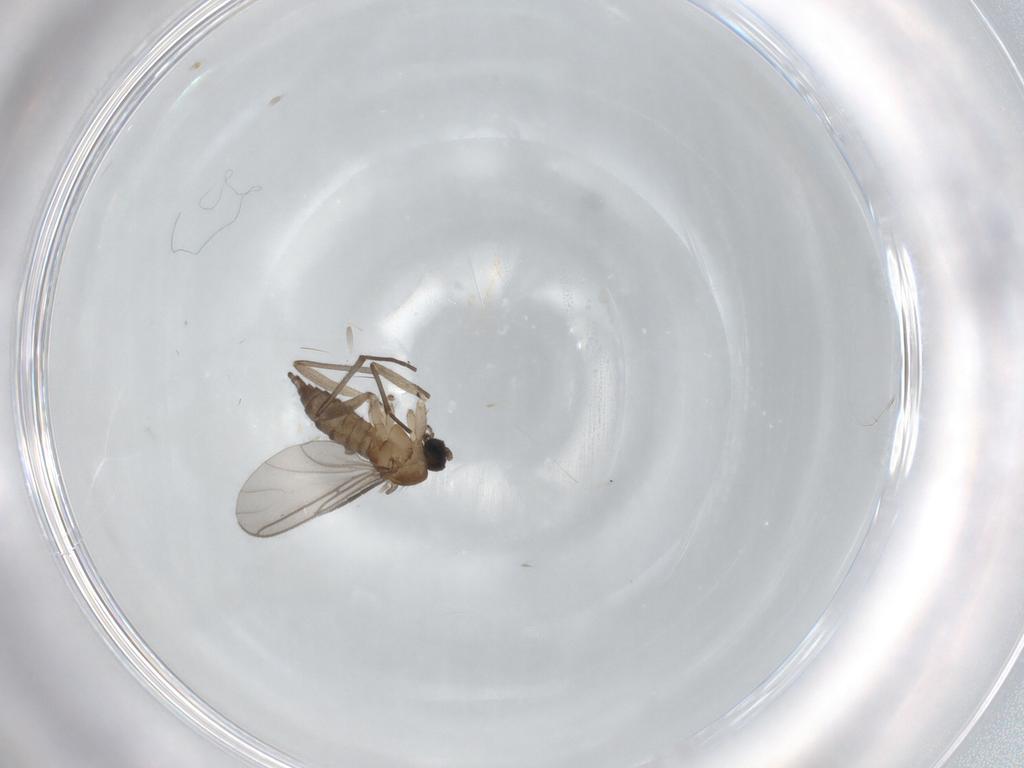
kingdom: Animalia
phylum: Arthropoda
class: Insecta
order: Diptera
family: Sciaridae
